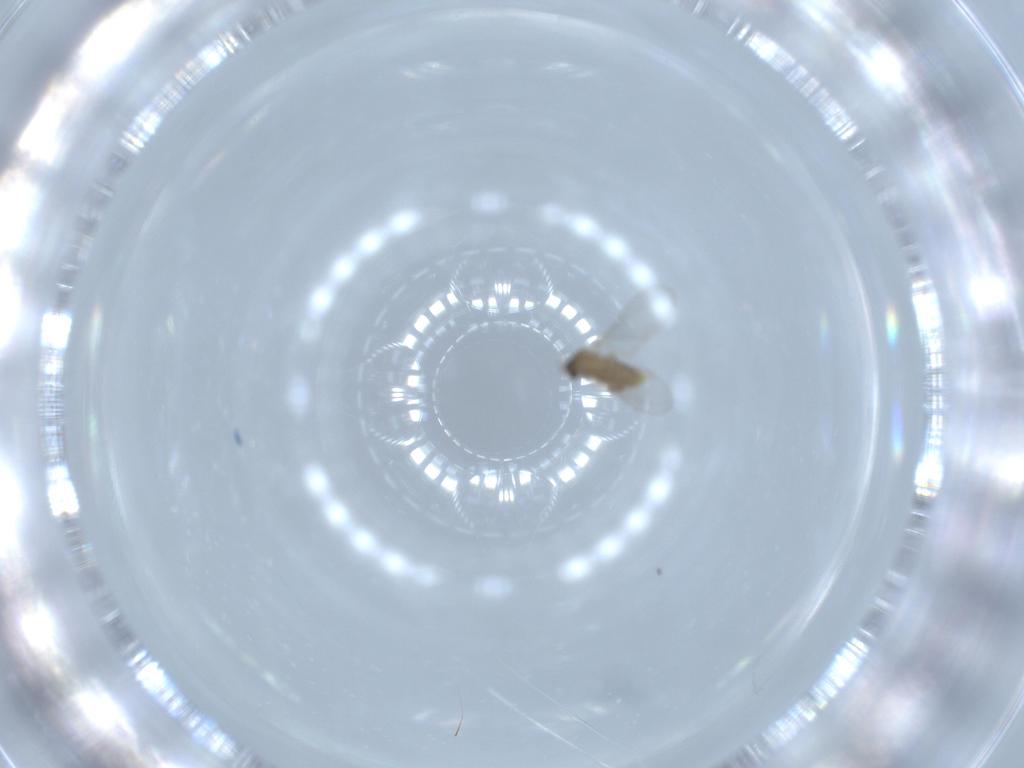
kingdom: Animalia
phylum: Arthropoda
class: Insecta
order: Diptera
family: Cecidomyiidae
